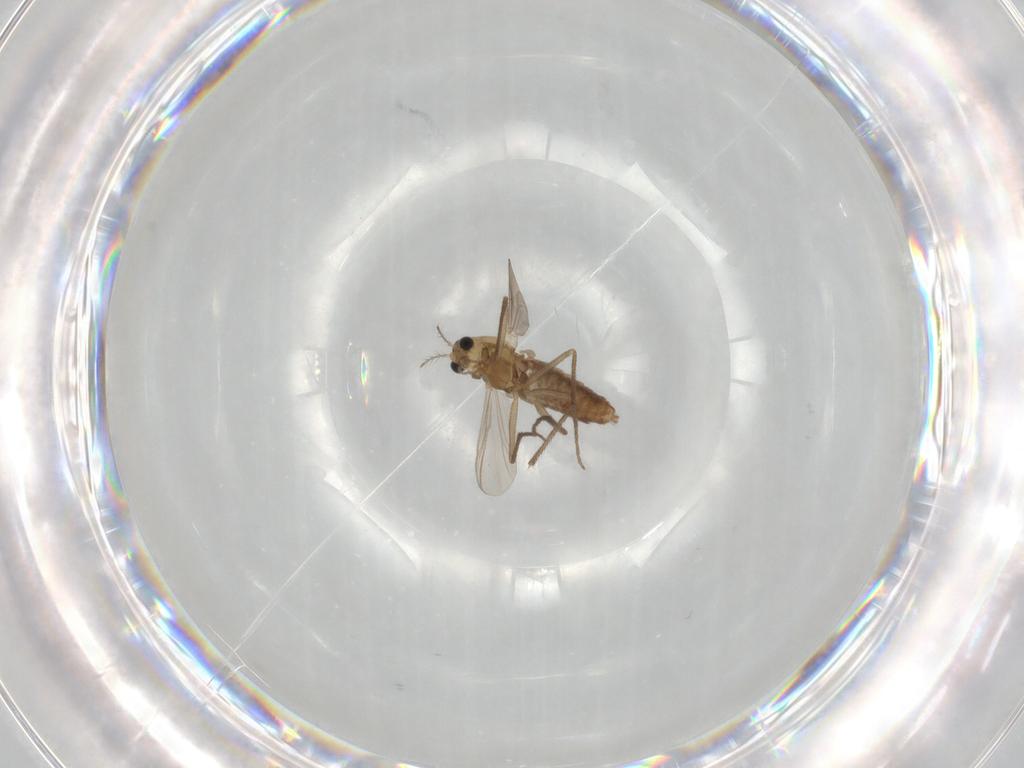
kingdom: Animalia
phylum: Arthropoda
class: Insecta
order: Diptera
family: Chironomidae
